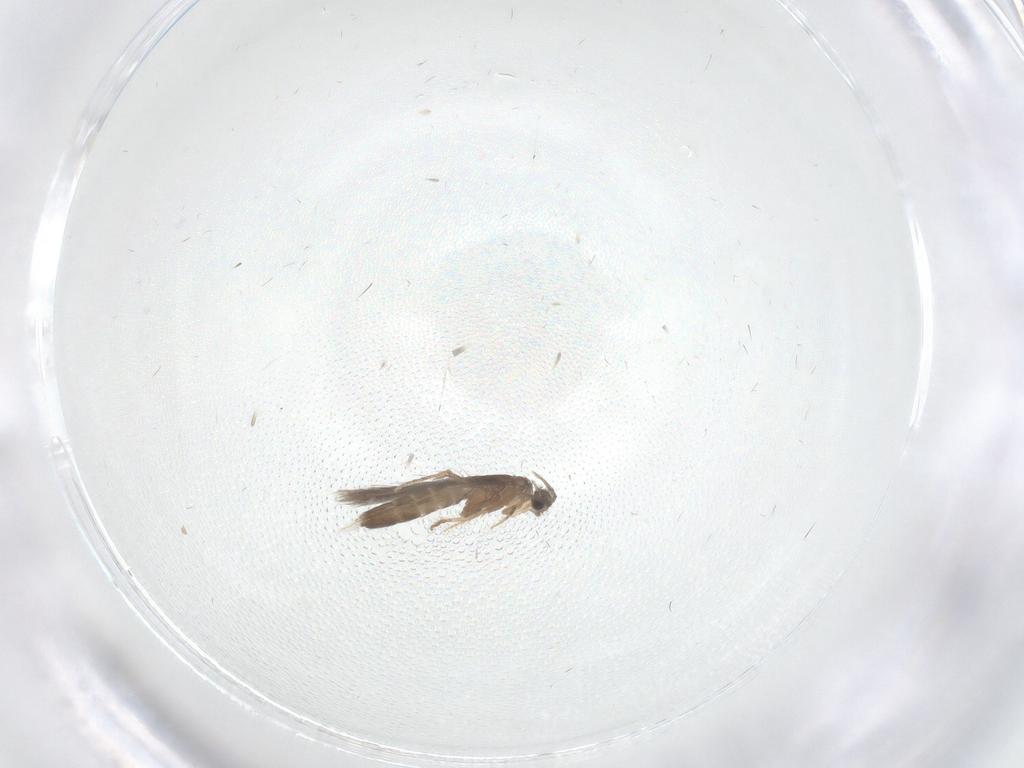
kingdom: Animalia
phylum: Arthropoda
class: Insecta
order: Trichoptera
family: Hydroptilidae
